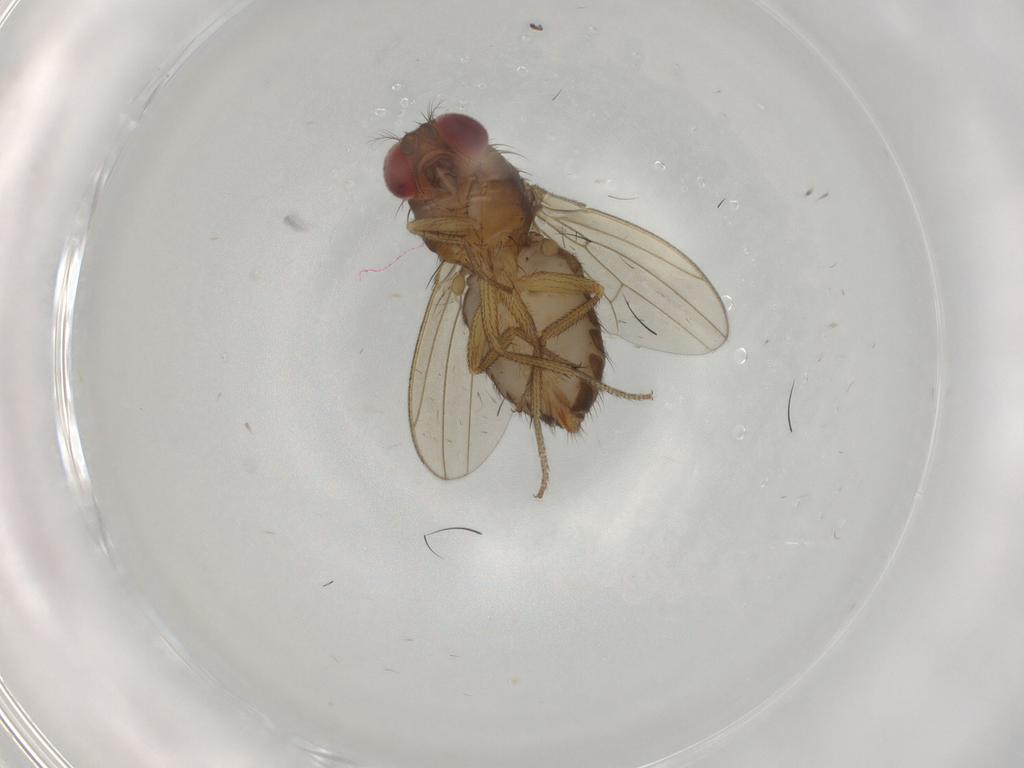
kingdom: Animalia
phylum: Arthropoda
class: Insecta
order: Diptera
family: Drosophilidae
